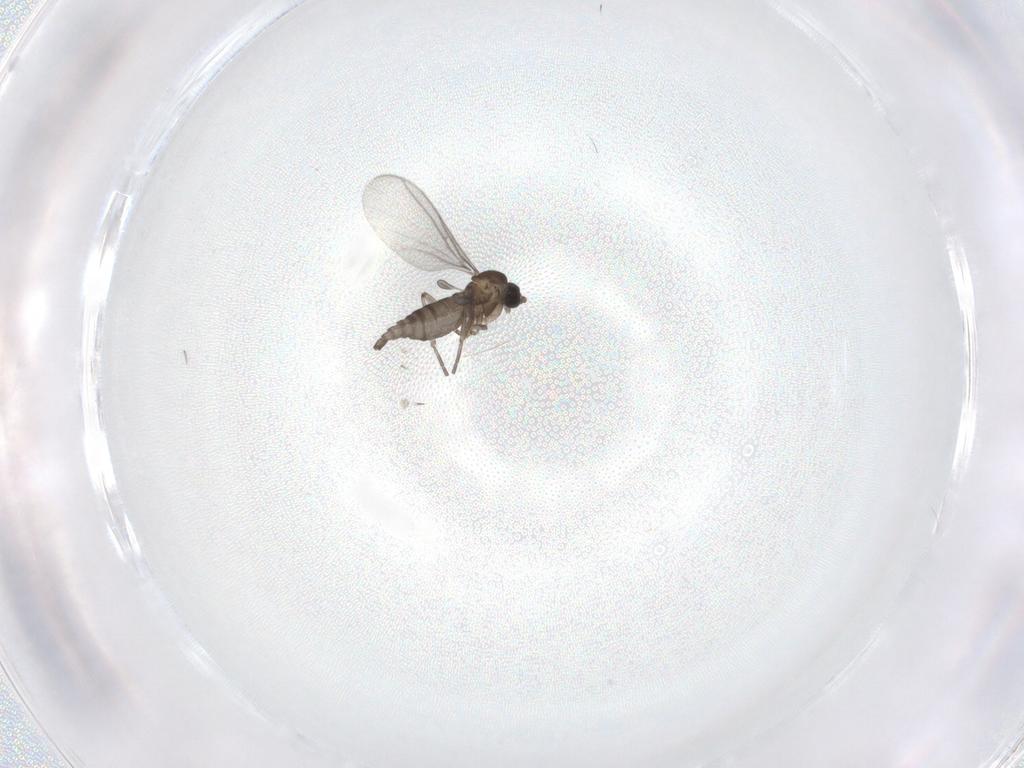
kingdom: Animalia
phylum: Arthropoda
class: Insecta
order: Diptera
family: Sciaridae
